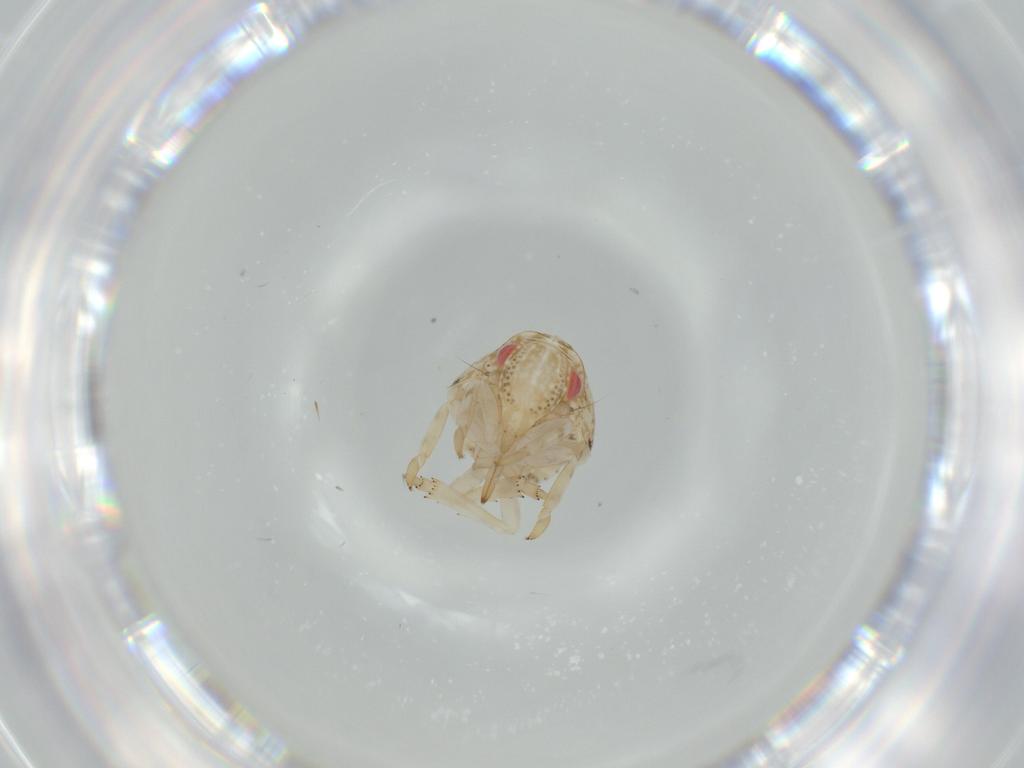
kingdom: Animalia
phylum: Arthropoda
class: Insecta
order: Hemiptera
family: Acanaloniidae
